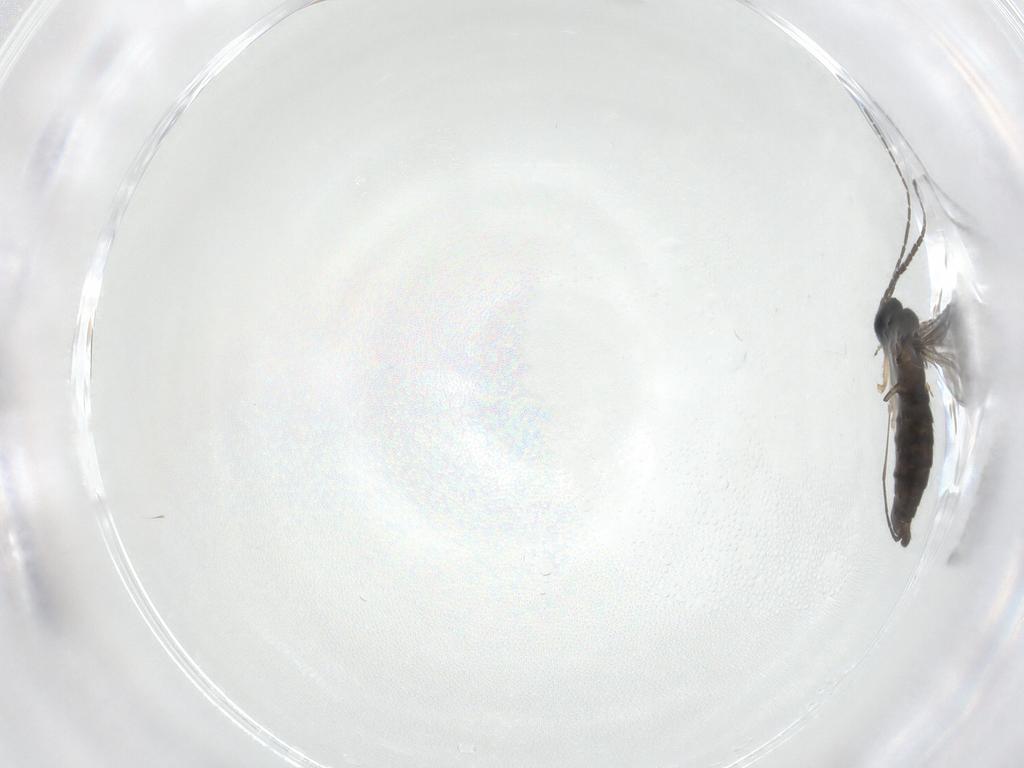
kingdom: Animalia
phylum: Arthropoda
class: Insecta
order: Diptera
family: Sciaridae
